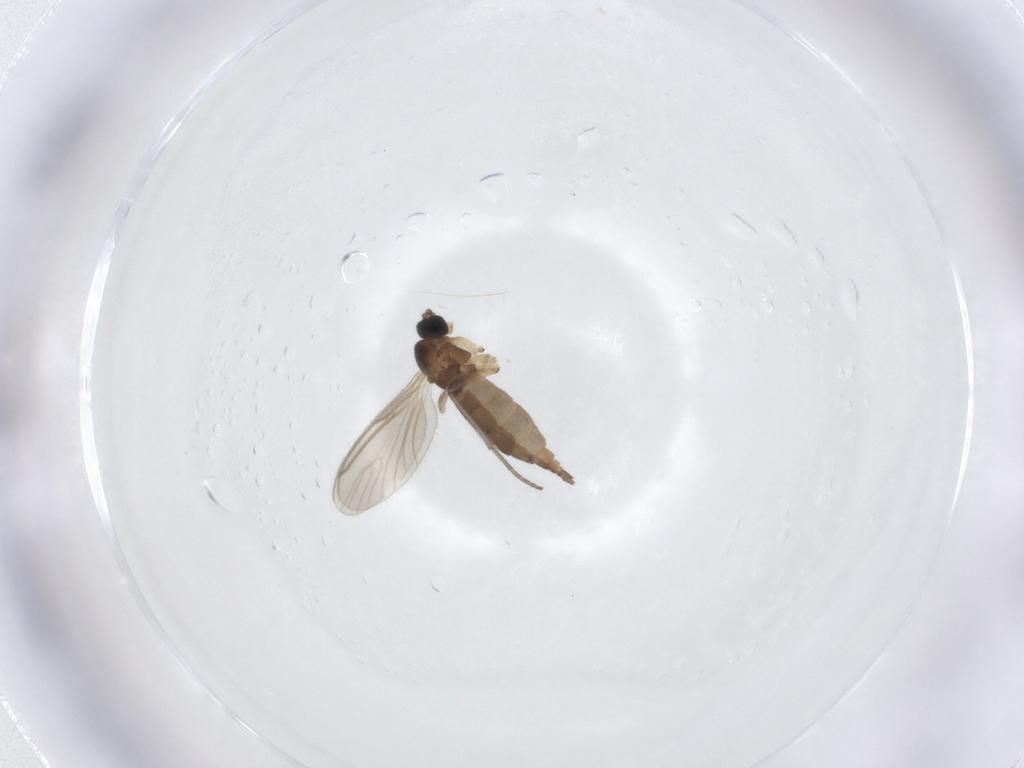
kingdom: Animalia
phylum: Arthropoda
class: Insecta
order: Diptera
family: Sciaridae
